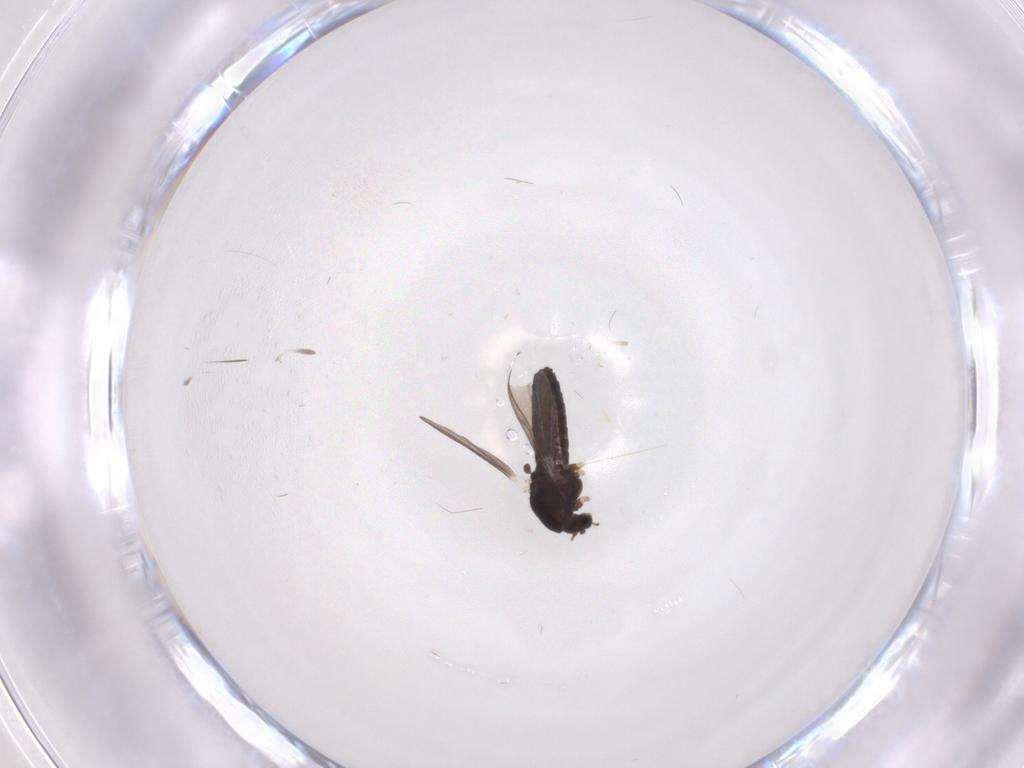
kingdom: Animalia
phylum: Arthropoda
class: Insecta
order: Diptera
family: Chironomidae
